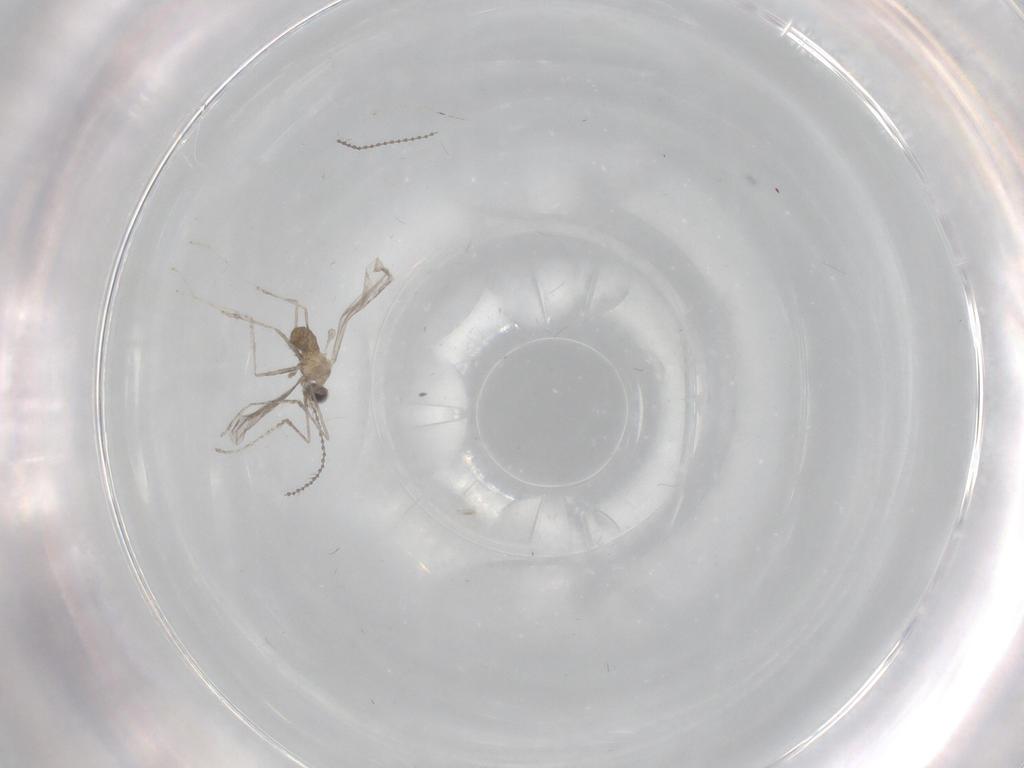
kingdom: Animalia
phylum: Arthropoda
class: Insecta
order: Diptera
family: Cecidomyiidae
